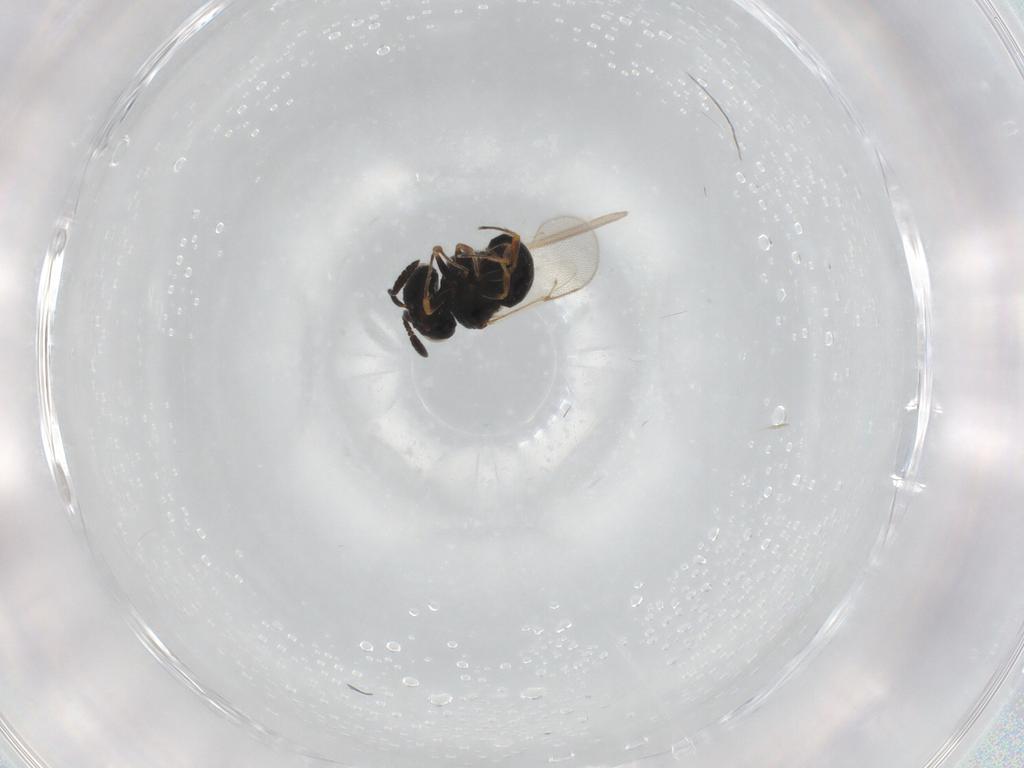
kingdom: Animalia
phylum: Arthropoda
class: Insecta
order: Hymenoptera
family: Scelionidae
